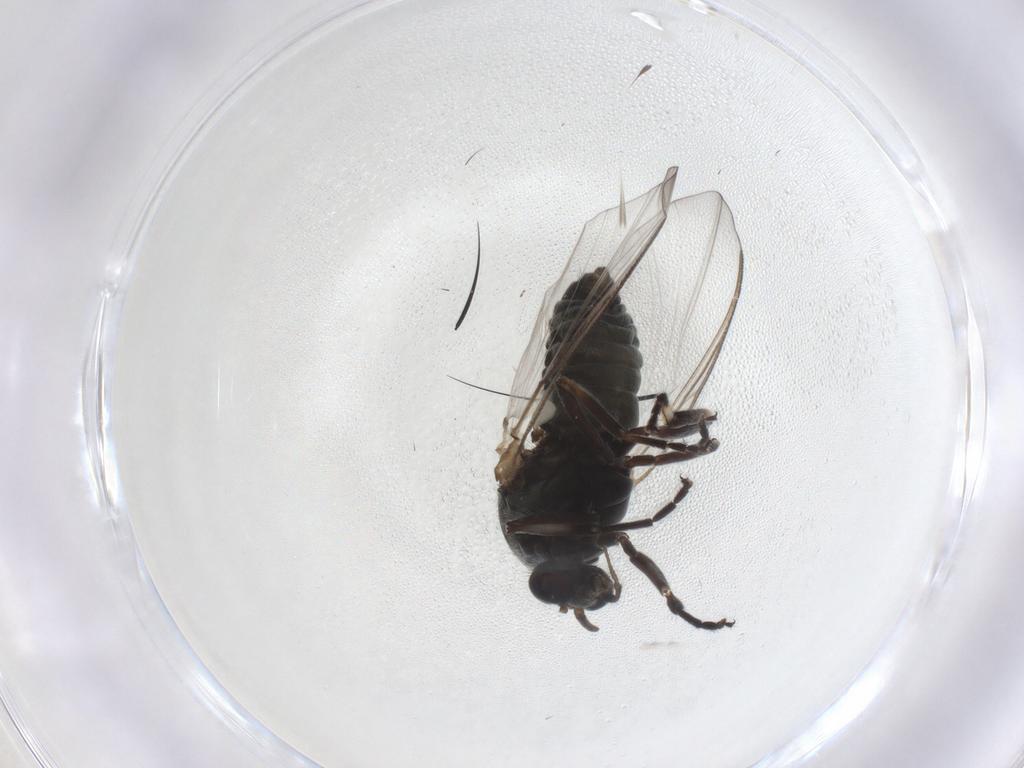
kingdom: Animalia
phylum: Arthropoda
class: Insecta
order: Diptera
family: Simuliidae
